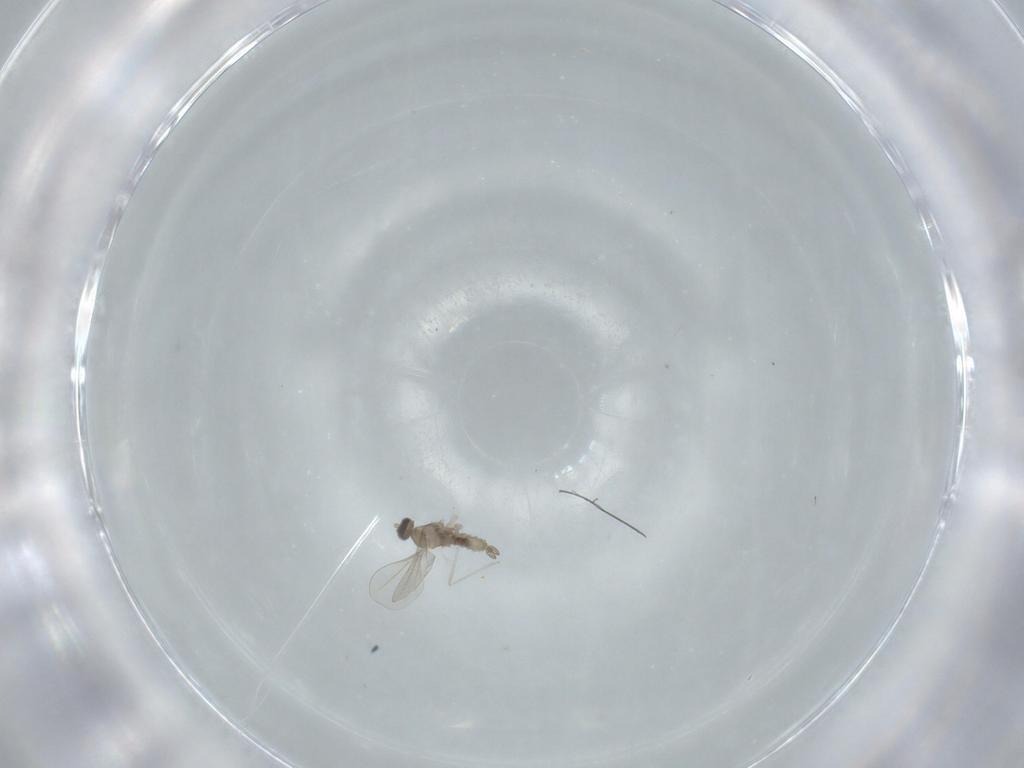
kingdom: Animalia
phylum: Arthropoda
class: Insecta
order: Diptera
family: Cecidomyiidae
